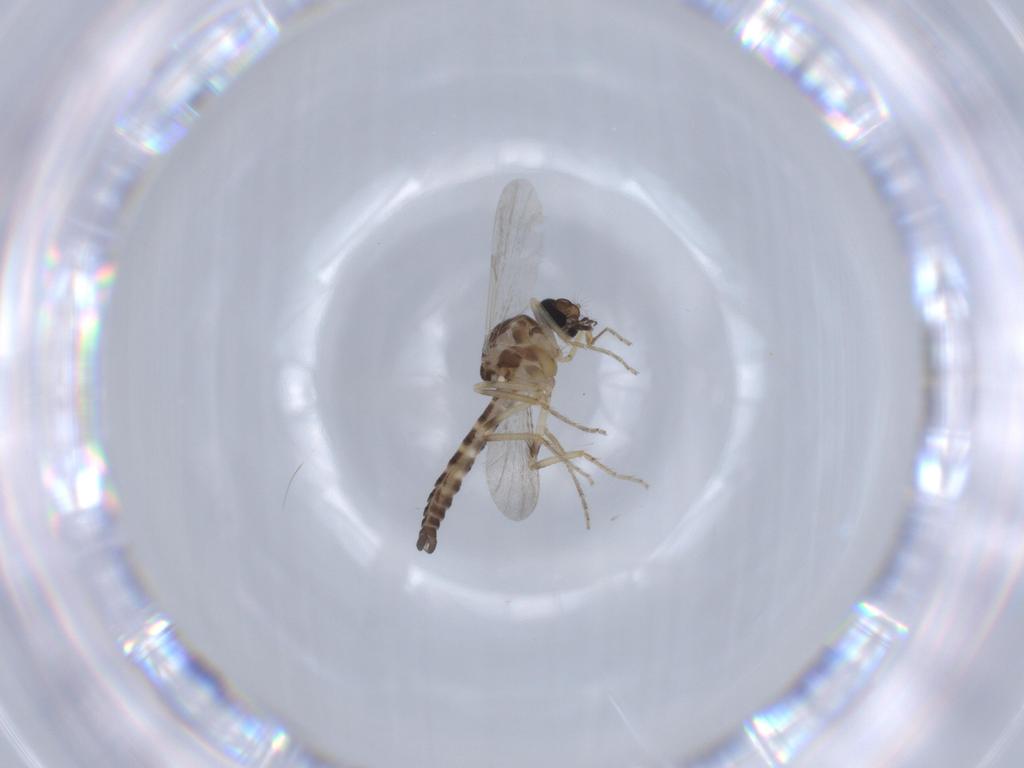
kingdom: Animalia
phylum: Arthropoda
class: Insecta
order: Diptera
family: Ceratopogonidae
